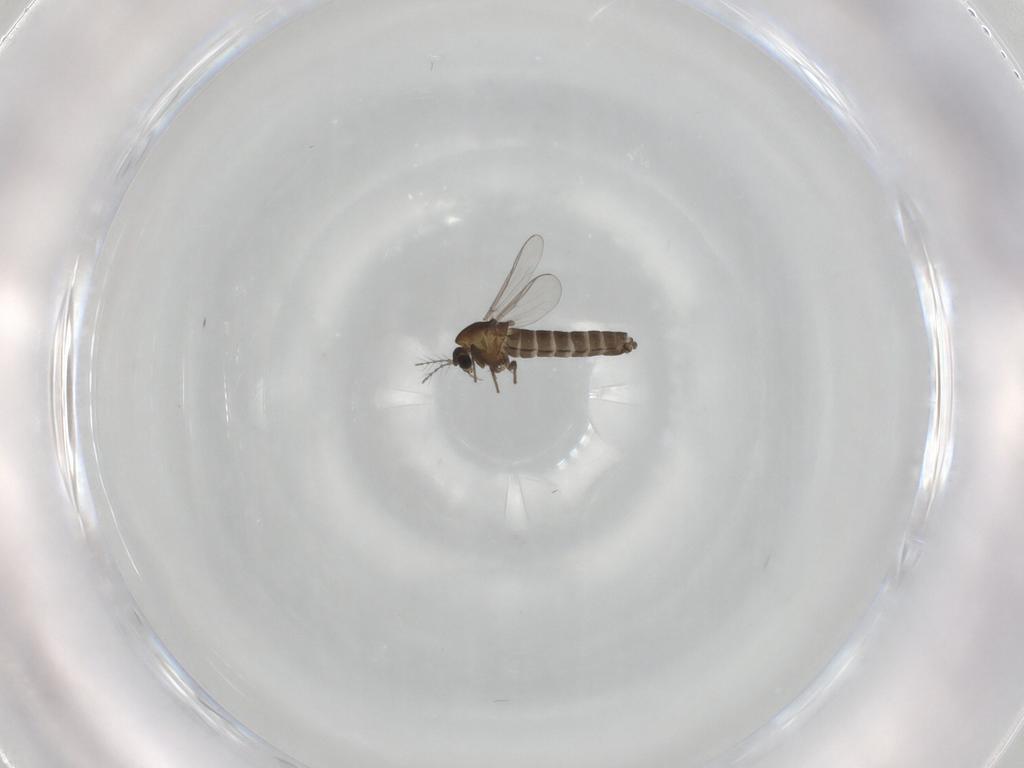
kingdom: Animalia
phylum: Arthropoda
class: Insecta
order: Diptera
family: Chironomidae
